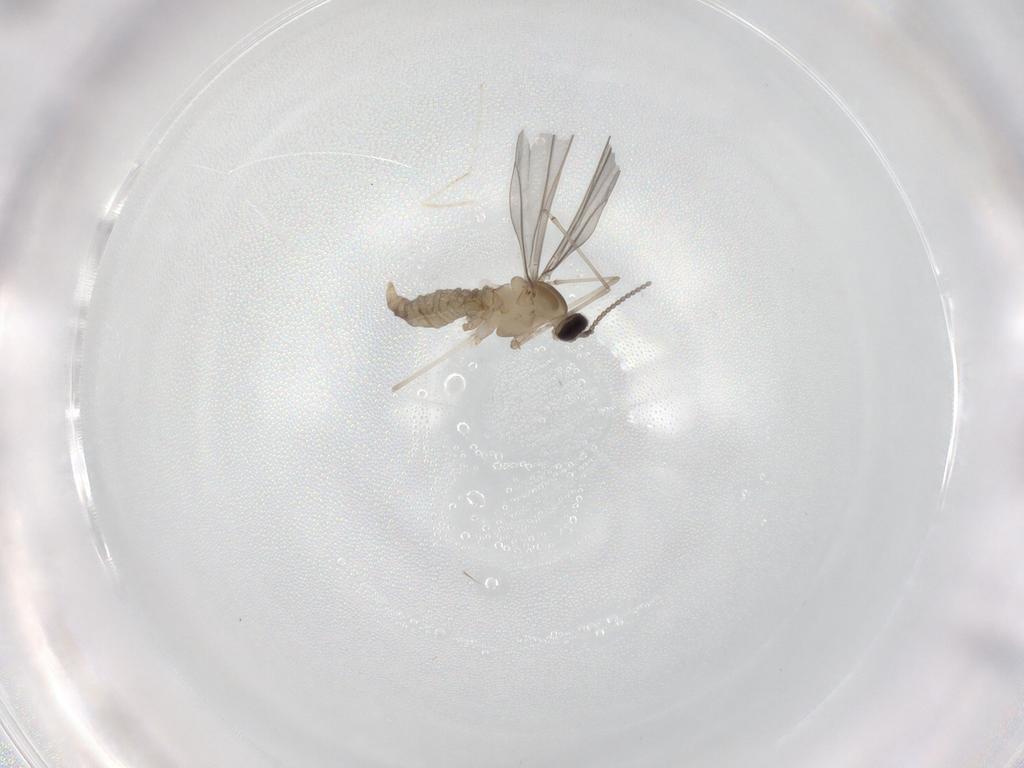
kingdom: Animalia
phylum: Arthropoda
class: Insecta
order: Diptera
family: Cecidomyiidae
